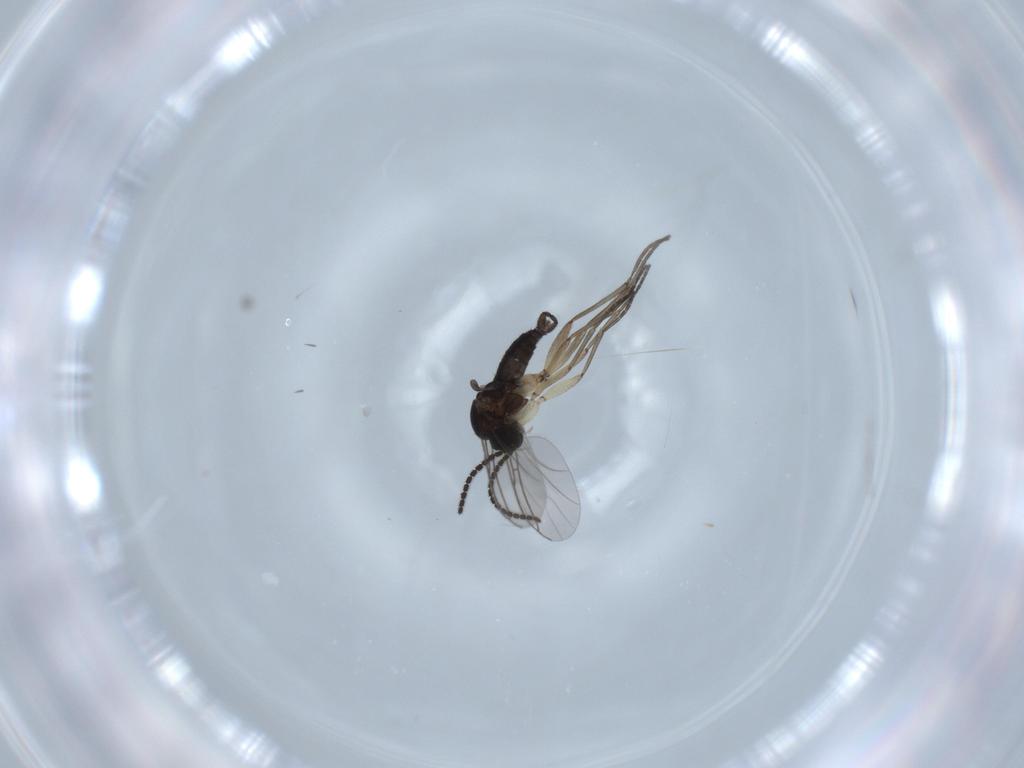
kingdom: Animalia
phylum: Arthropoda
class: Insecta
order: Diptera
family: Sciaridae
